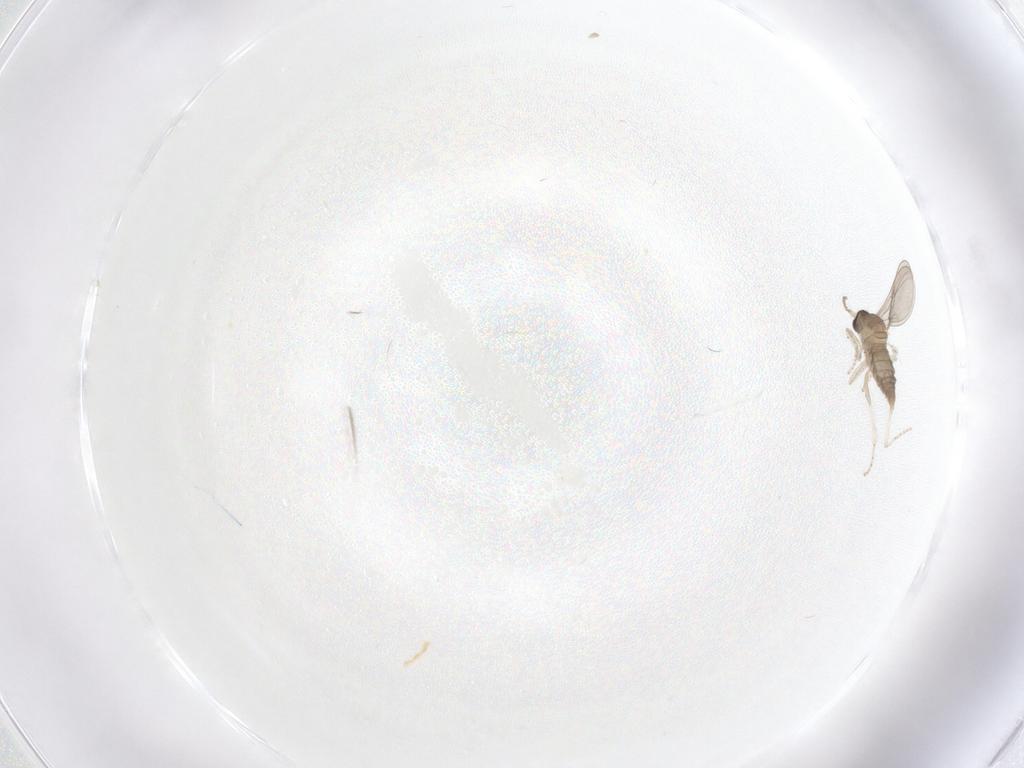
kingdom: Animalia
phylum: Arthropoda
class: Insecta
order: Diptera
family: Cecidomyiidae
